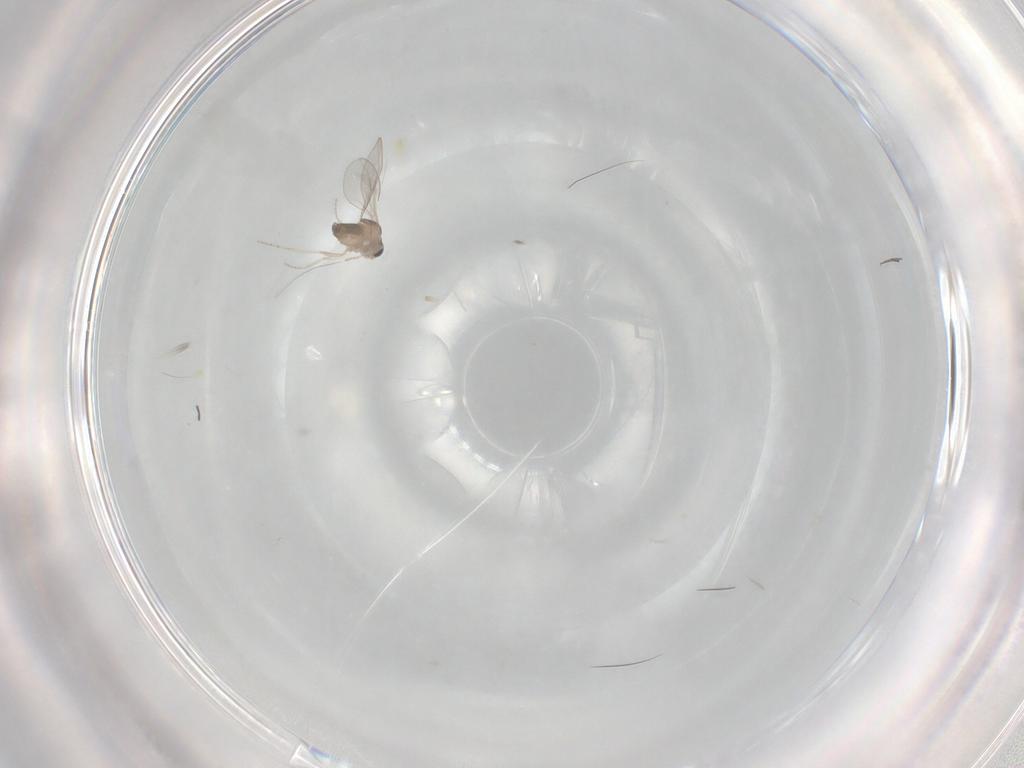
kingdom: Animalia
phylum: Arthropoda
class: Insecta
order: Diptera
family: Cecidomyiidae
